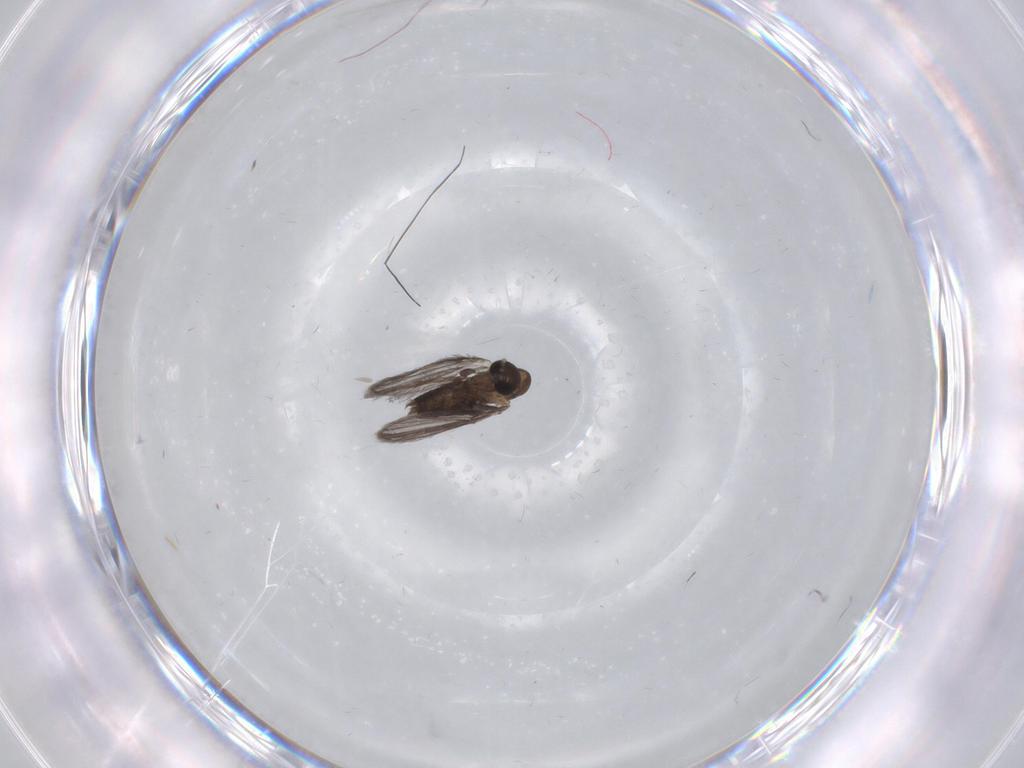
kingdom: Animalia
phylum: Arthropoda
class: Insecta
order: Diptera
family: Cecidomyiidae
